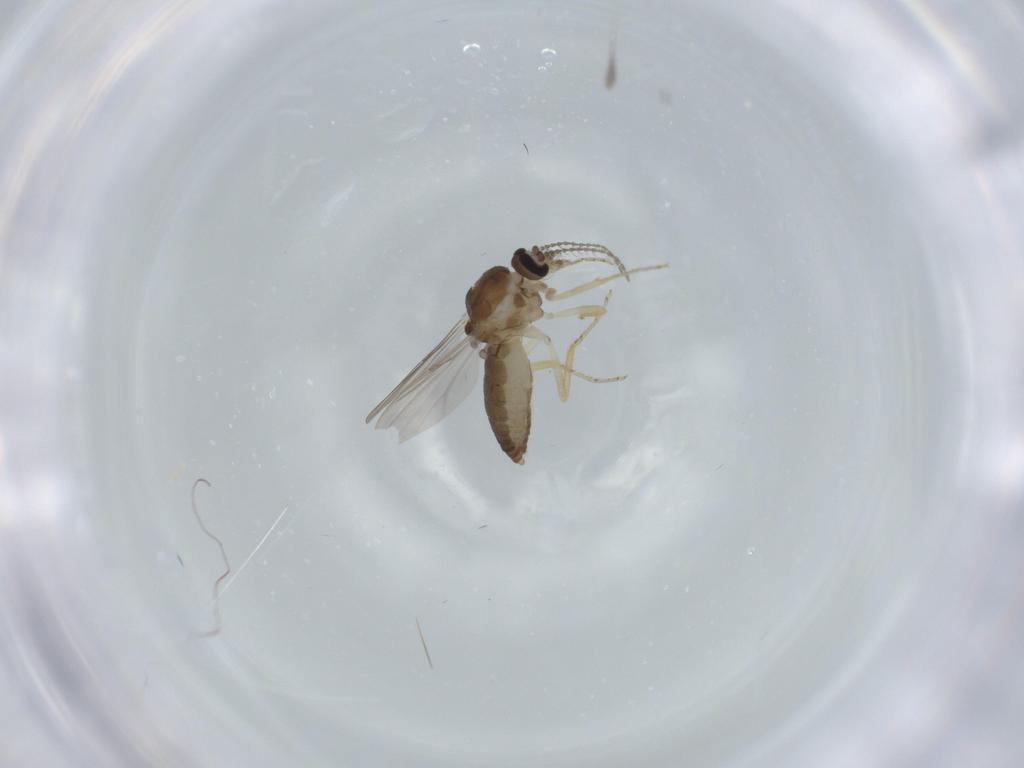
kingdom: Animalia
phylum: Arthropoda
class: Insecta
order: Diptera
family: Ceratopogonidae
